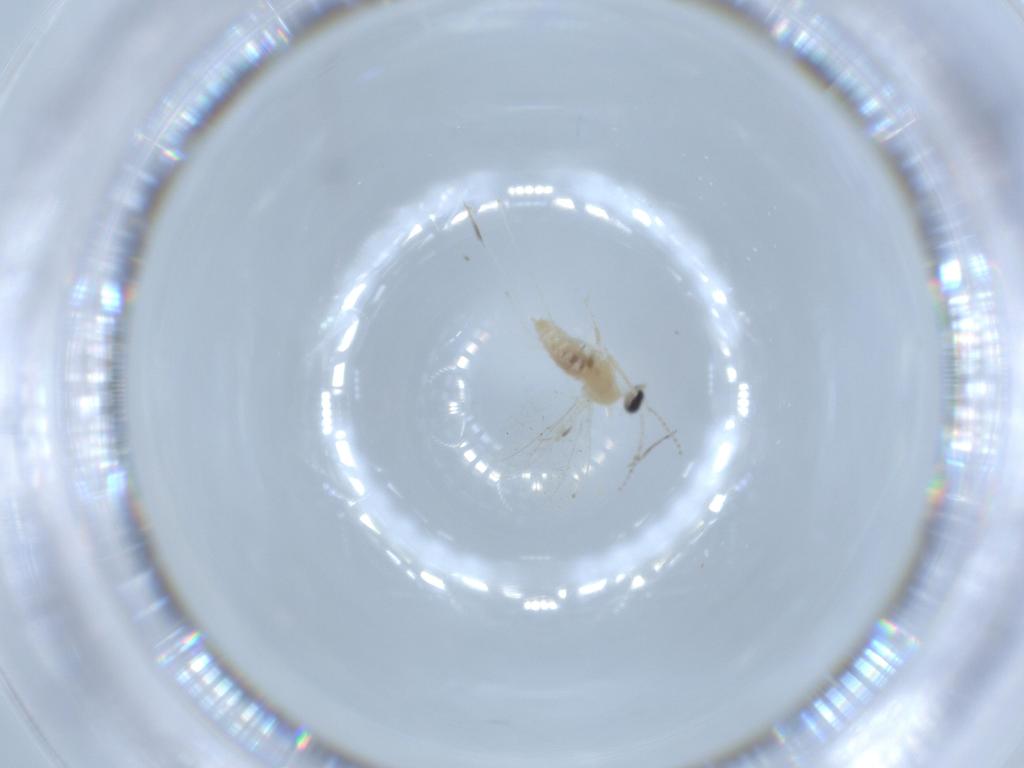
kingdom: Animalia
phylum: Arthropoda
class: Insecta
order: Diptera
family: Cecidomyiidae
